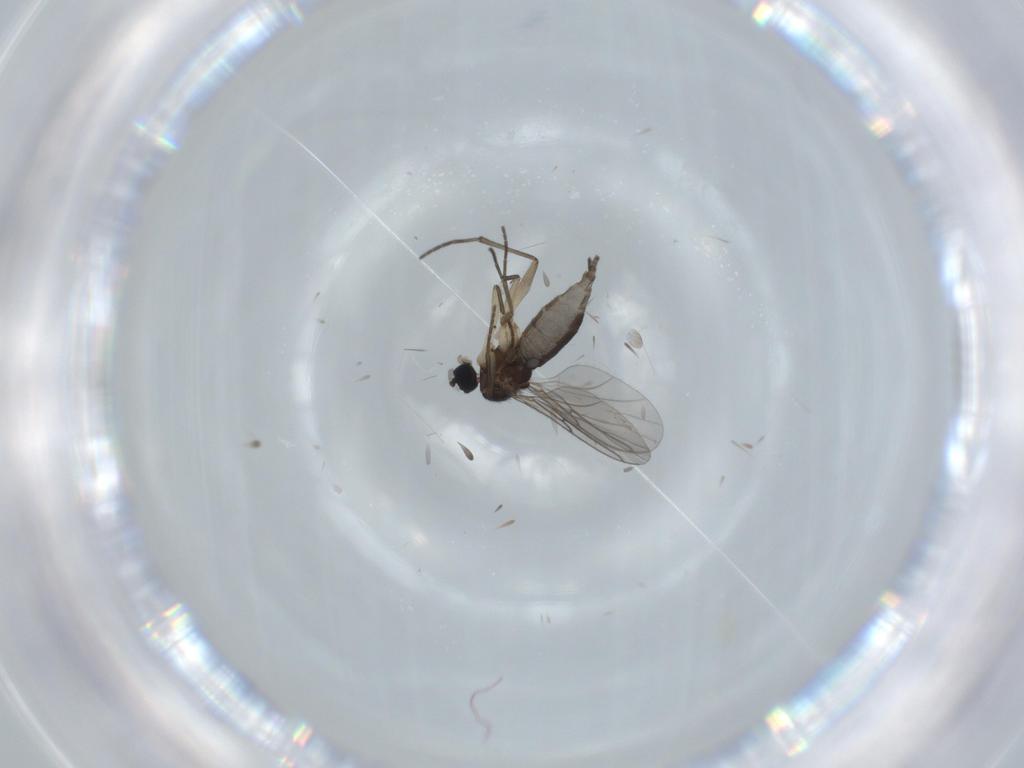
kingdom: Animalia
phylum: Arthropoda
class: Insecta
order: Diptera
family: Sciaridae
